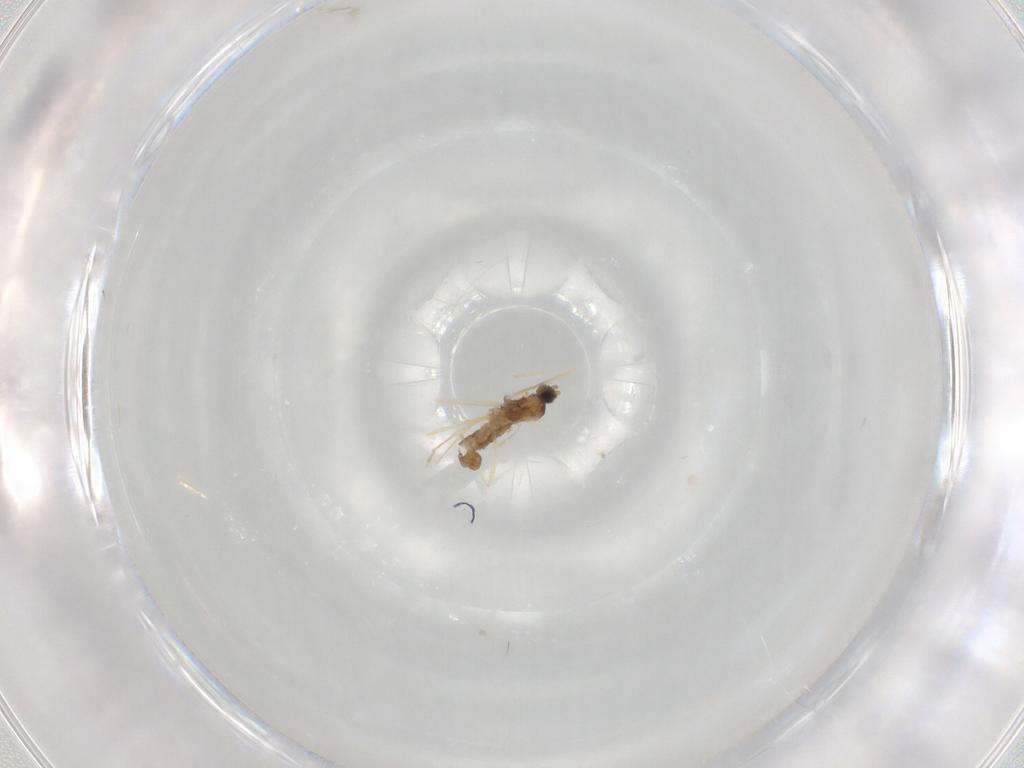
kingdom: Animalia
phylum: Arthropoda
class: Insecta
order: Diptera
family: Cecidomyiidae
